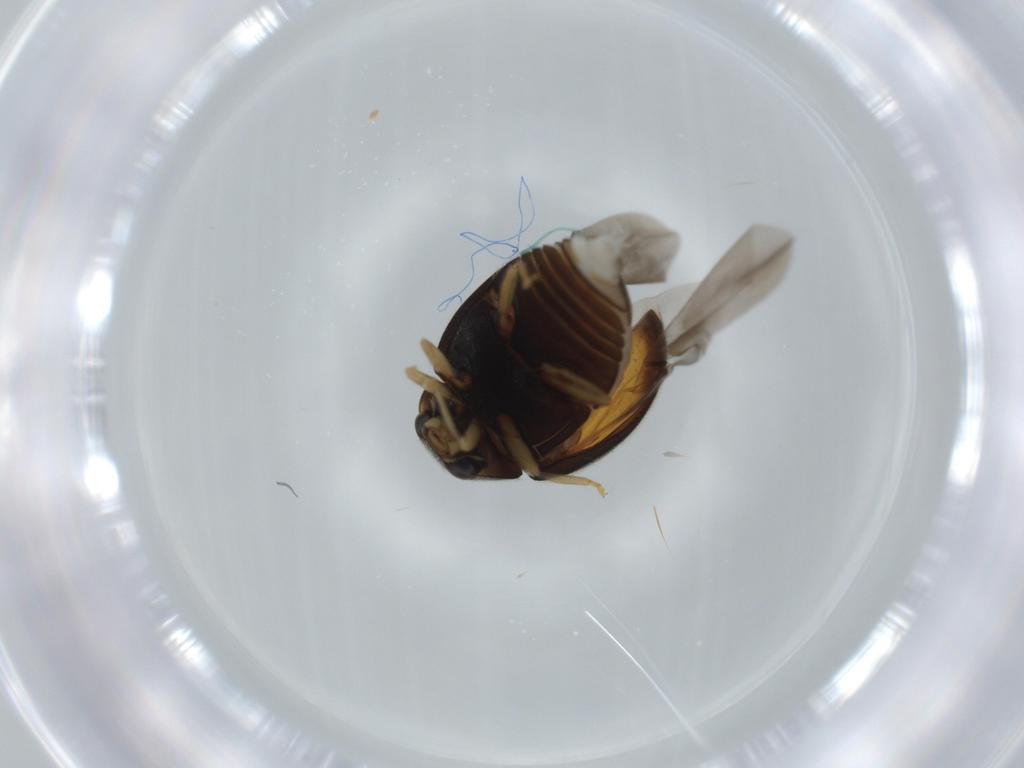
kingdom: Animalia
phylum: Arthropoda
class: Insecta
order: Coleoptera
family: Coccinellidae
